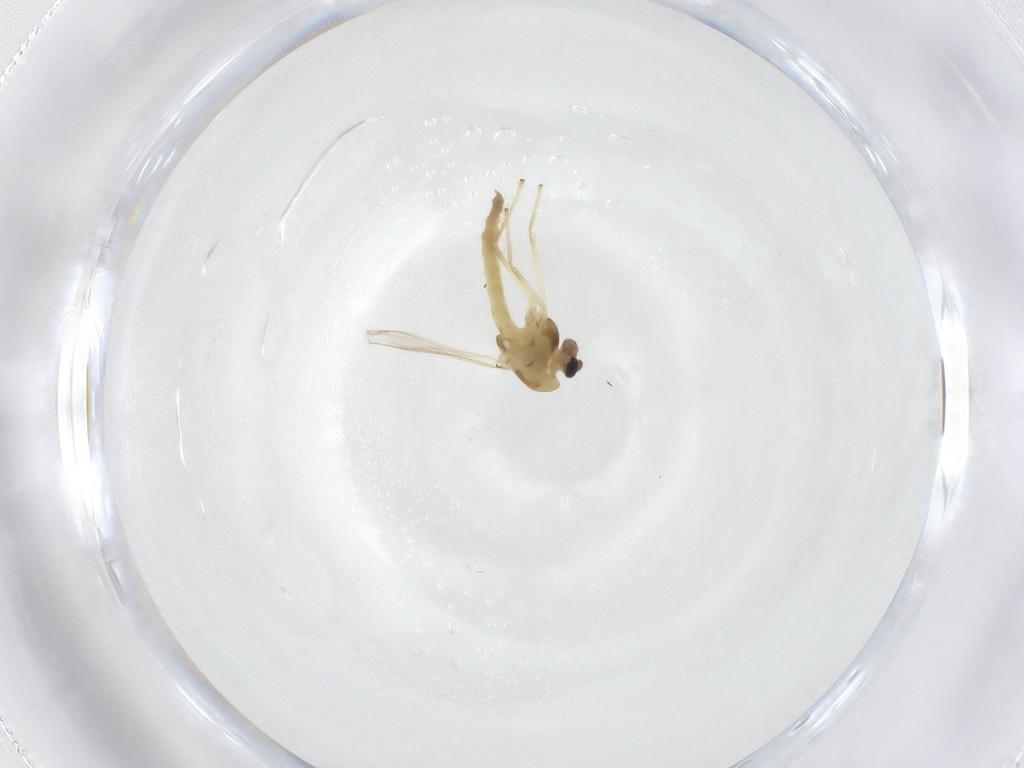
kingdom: Animalia
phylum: Arthropoda
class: Insecta
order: Diptera
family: Chironomidae
